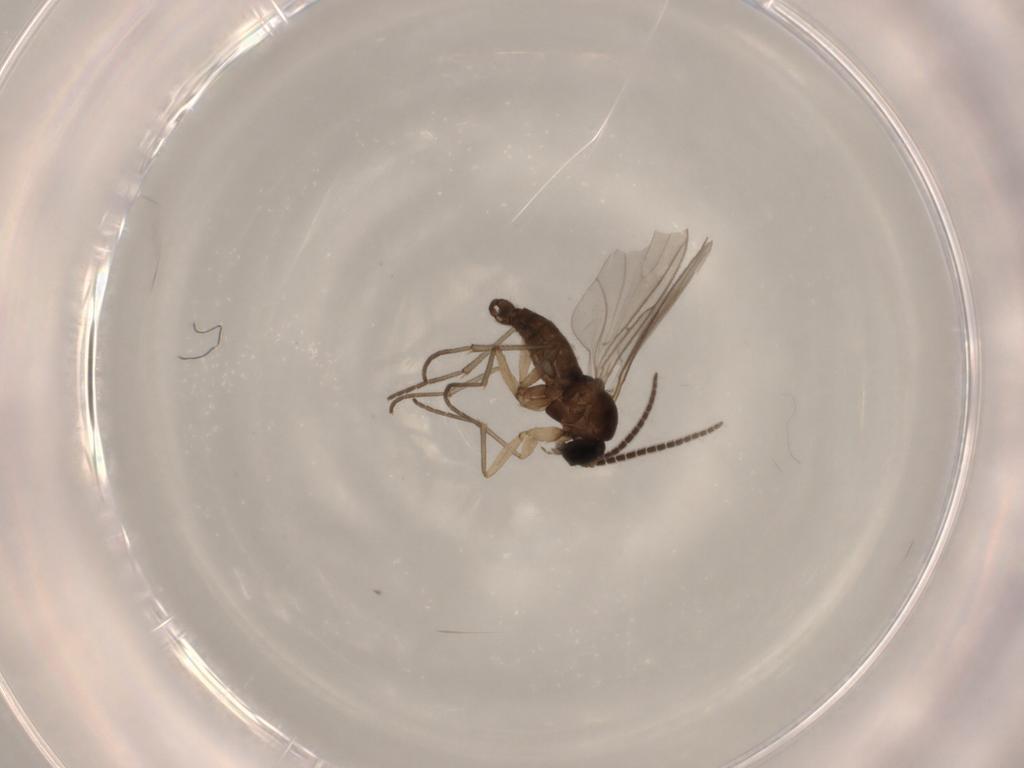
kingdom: Animalia
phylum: Arthropoda
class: Insecta
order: Diptera
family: Sciaridae
